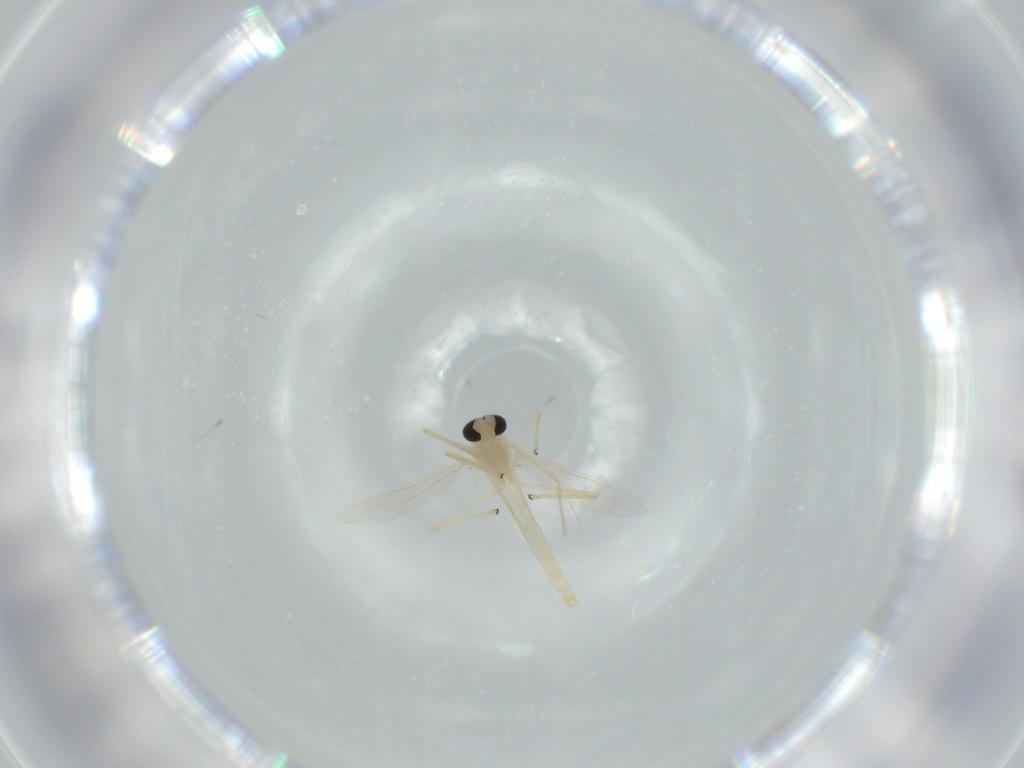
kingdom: Animalia
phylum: Arthropoda
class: Insecta
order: Diptera
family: Chironomidae
